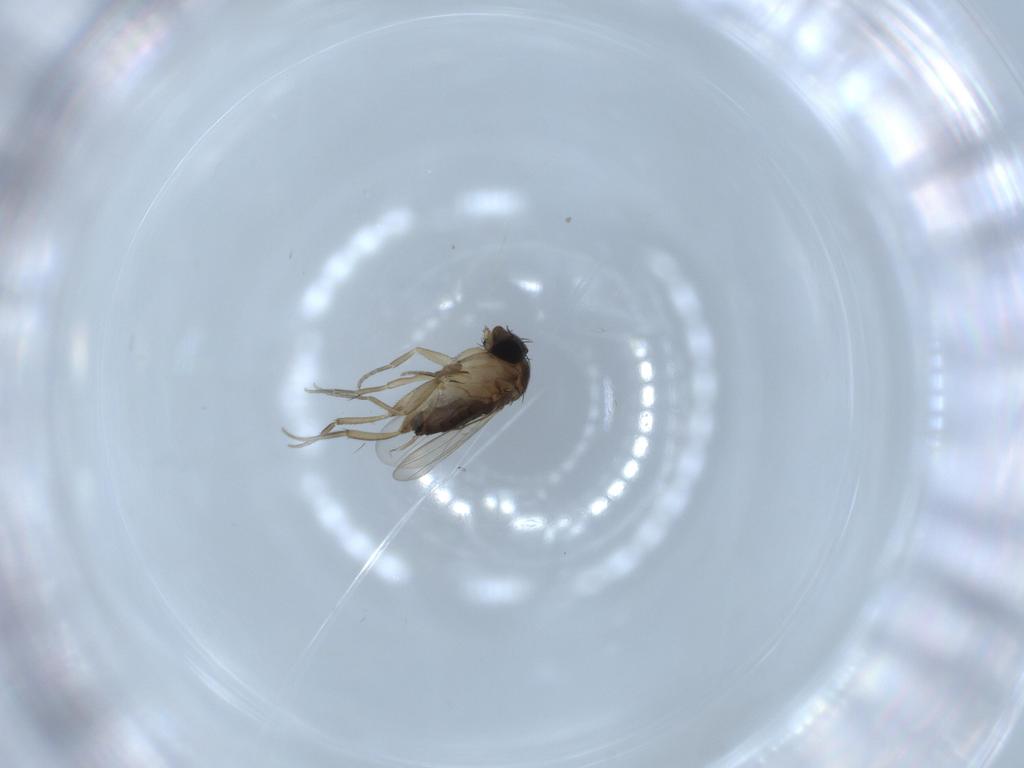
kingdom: Animalia
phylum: Arthropoda
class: Insecta
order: Diptera
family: Phoridae
